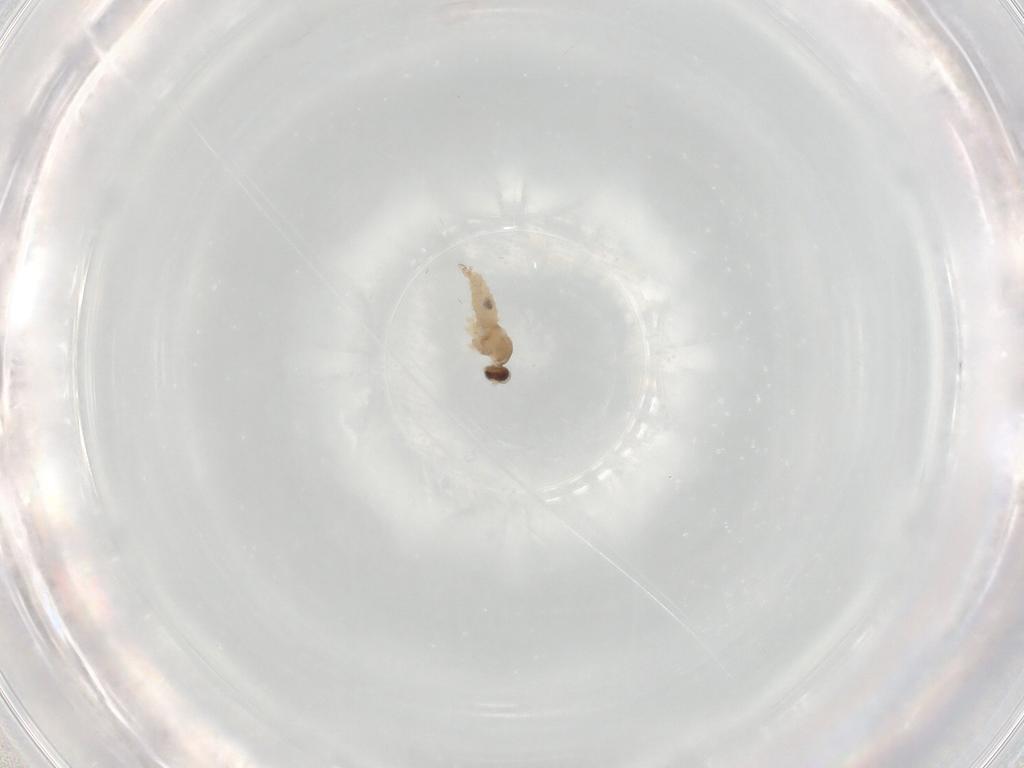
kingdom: Animalia
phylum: Arthropoda
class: Insecta
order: Diptera
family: Cecidomyiidae
